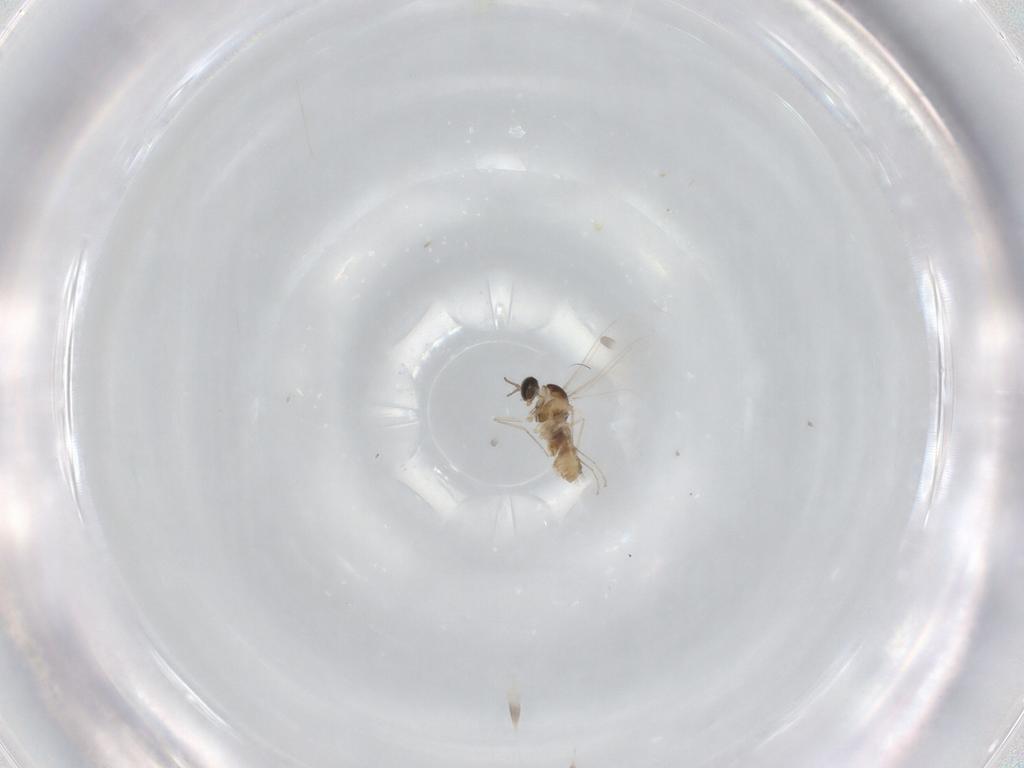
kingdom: Animalia
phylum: Arthropoda
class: Insecta
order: Diptera
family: Cecidomyiidae
